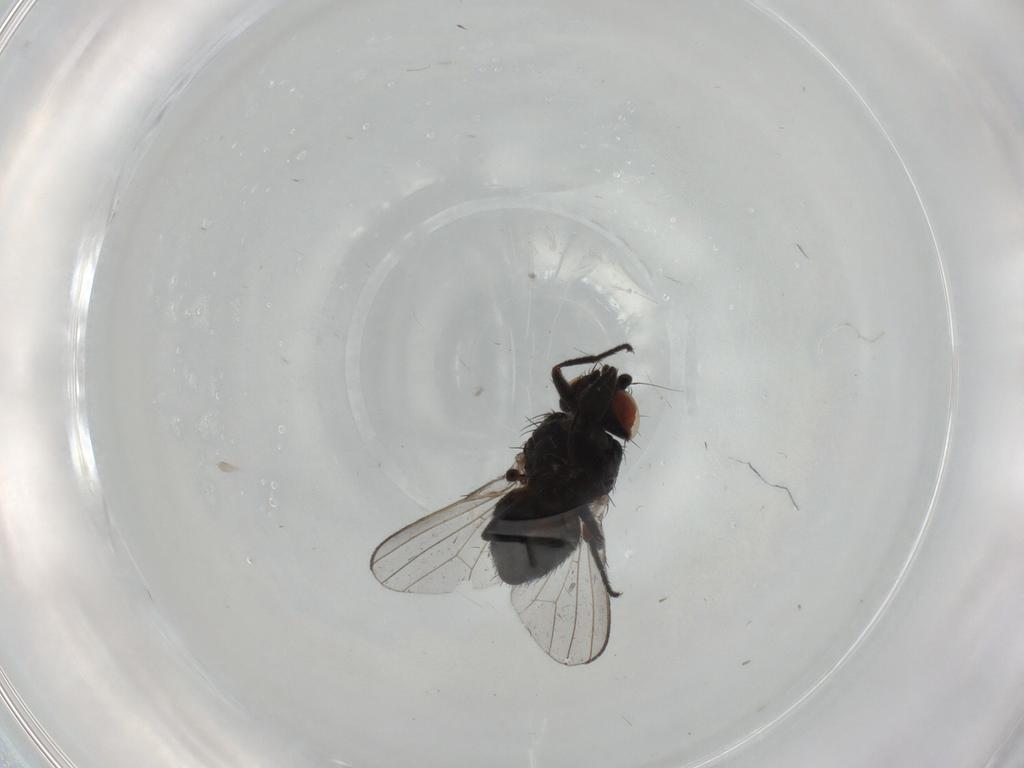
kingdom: Animalia
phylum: Arthropoda
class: Insecta
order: Diptera
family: Milichiidae
